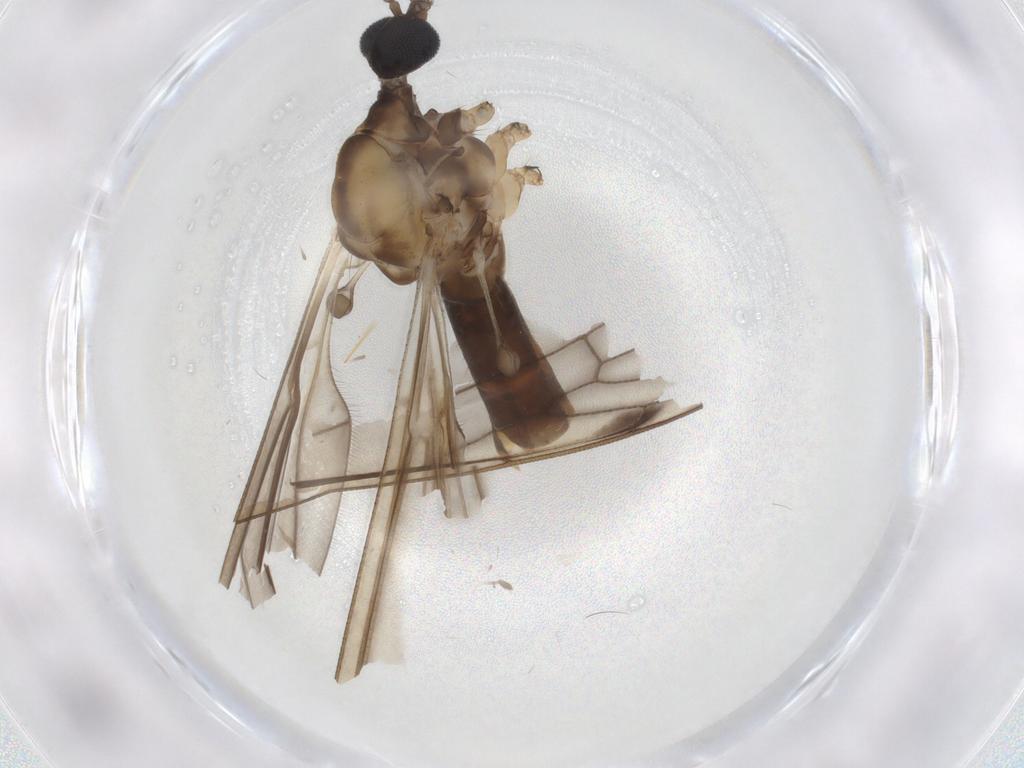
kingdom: Animalia
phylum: Arthropoda
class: Insecta
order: Diptera
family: Limoniidae
